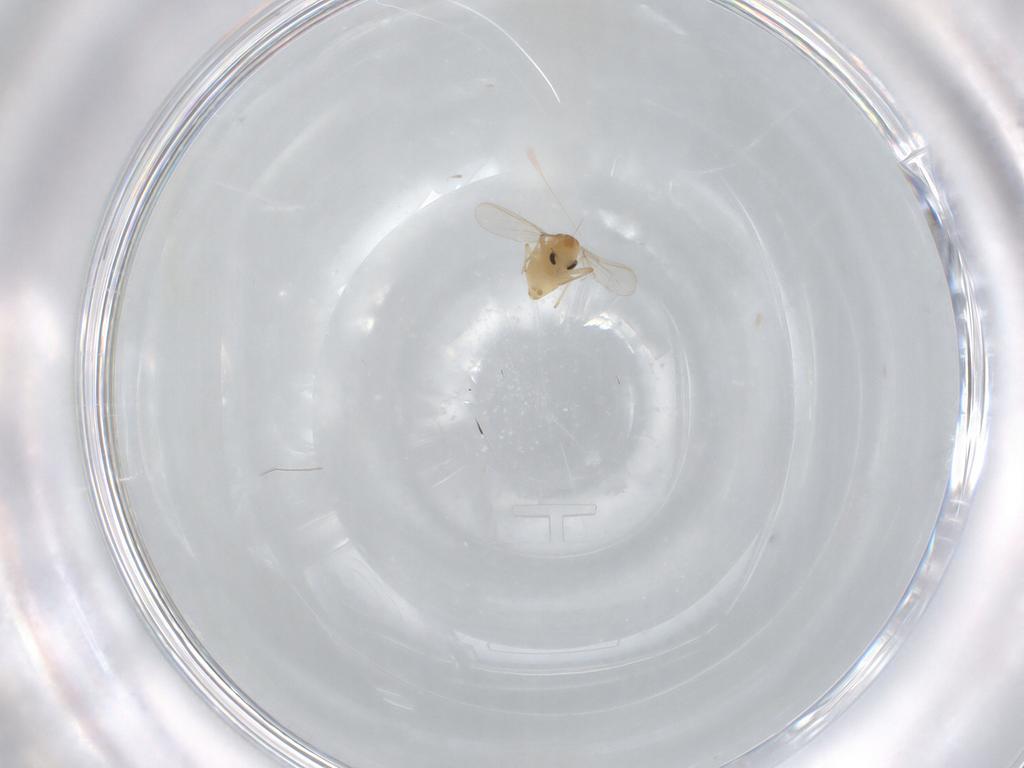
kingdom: Animalia
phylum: Arthropoda
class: Insecta
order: Diptera
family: Chironomidae
